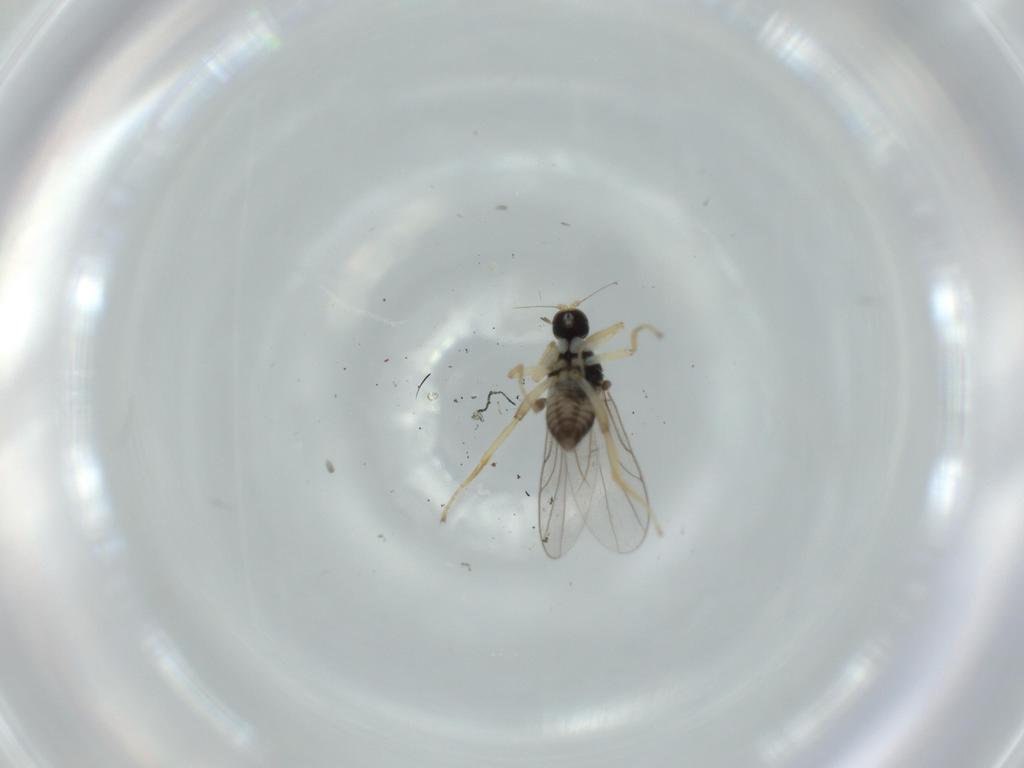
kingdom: Animalia
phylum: Arthropoda
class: Insecta
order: Diptera
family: Hybotidae
